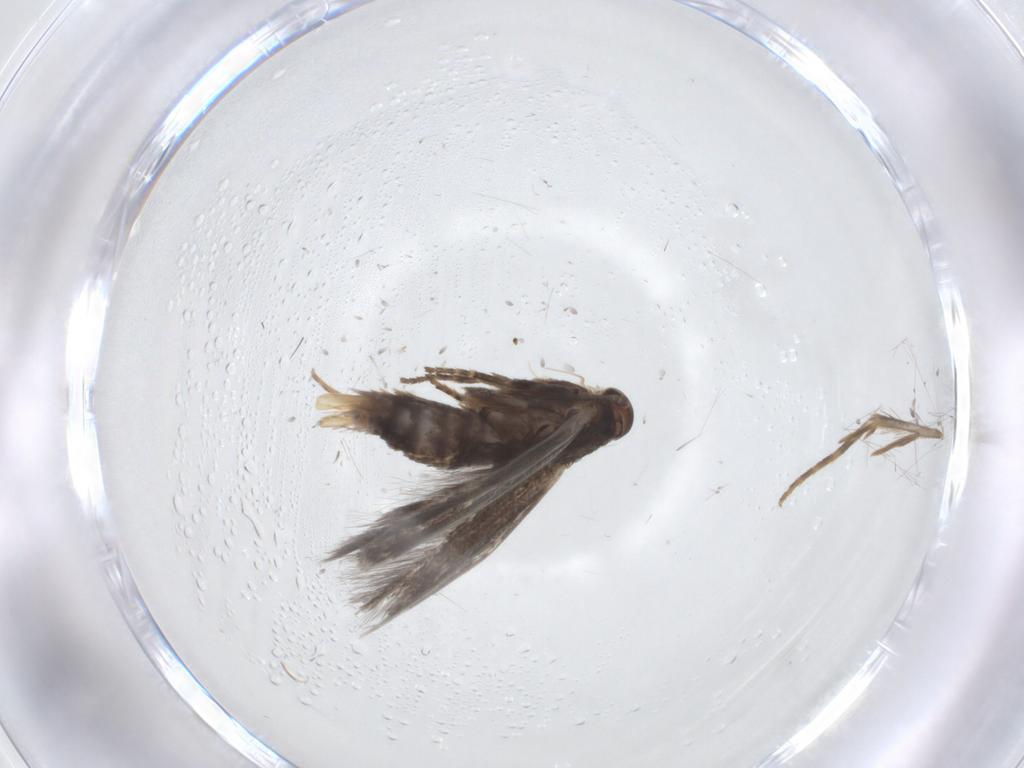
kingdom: Animalia
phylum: Arthropoda
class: Insecta
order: Lepidoptera
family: Elachistidae
